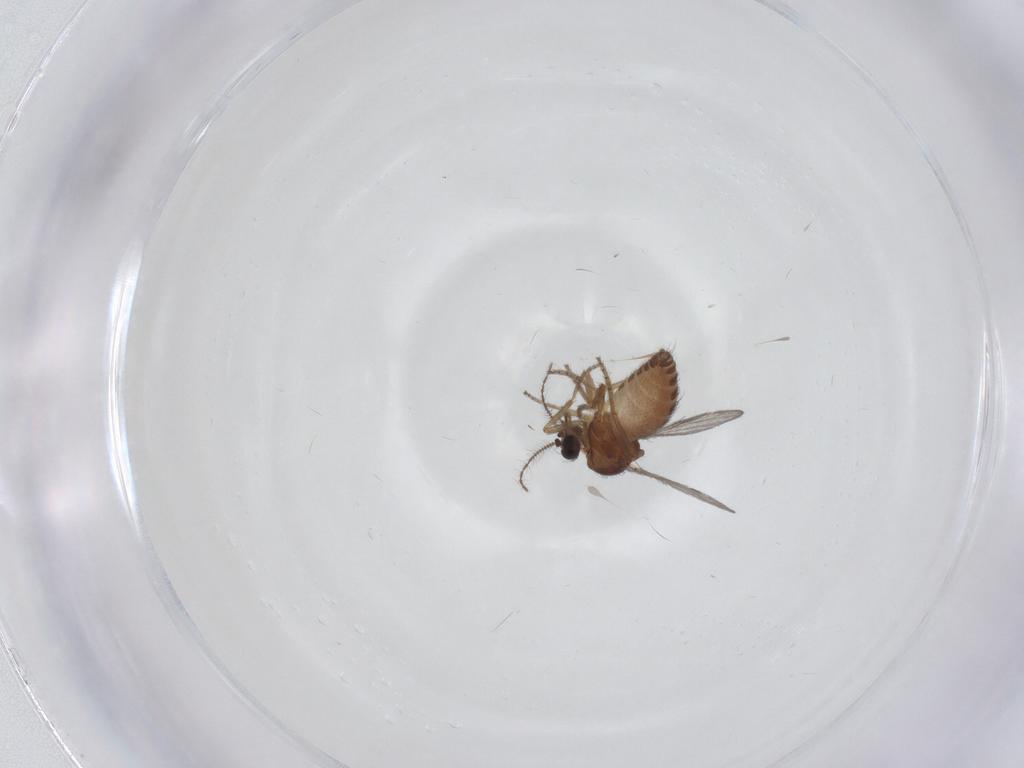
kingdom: Animalia
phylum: Arthropoda
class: Insecta
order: Diptera
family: Ceratopogonidae
